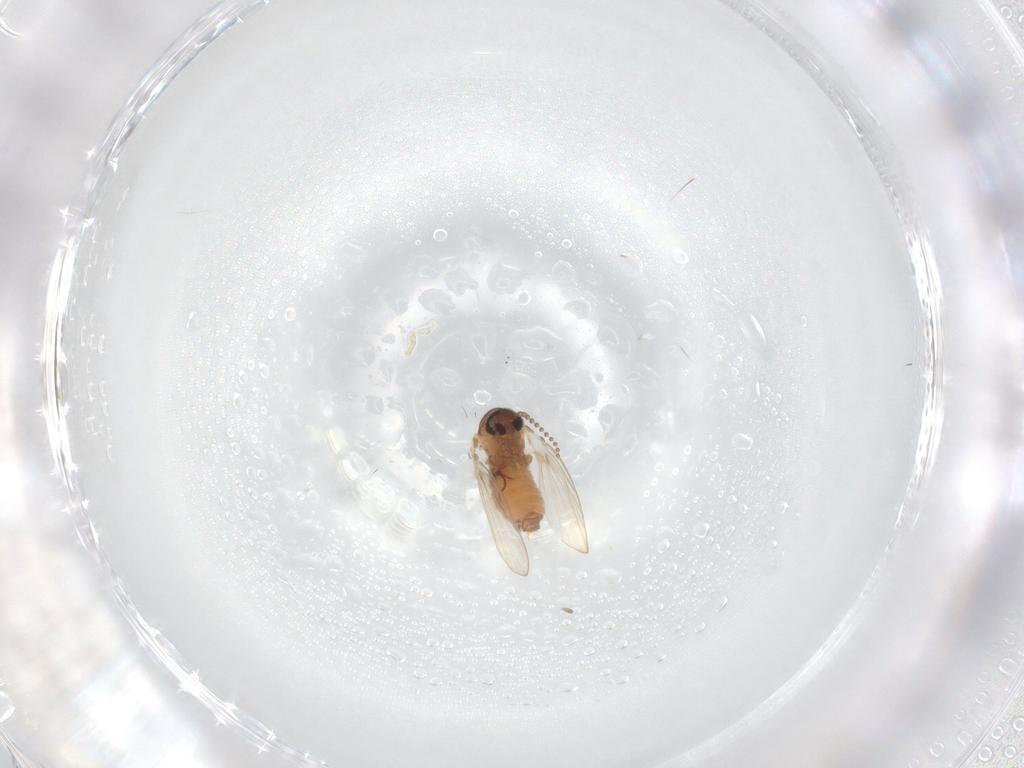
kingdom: Animalia
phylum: Arthropoda
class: Insecta
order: Diptera
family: Psychodidae
